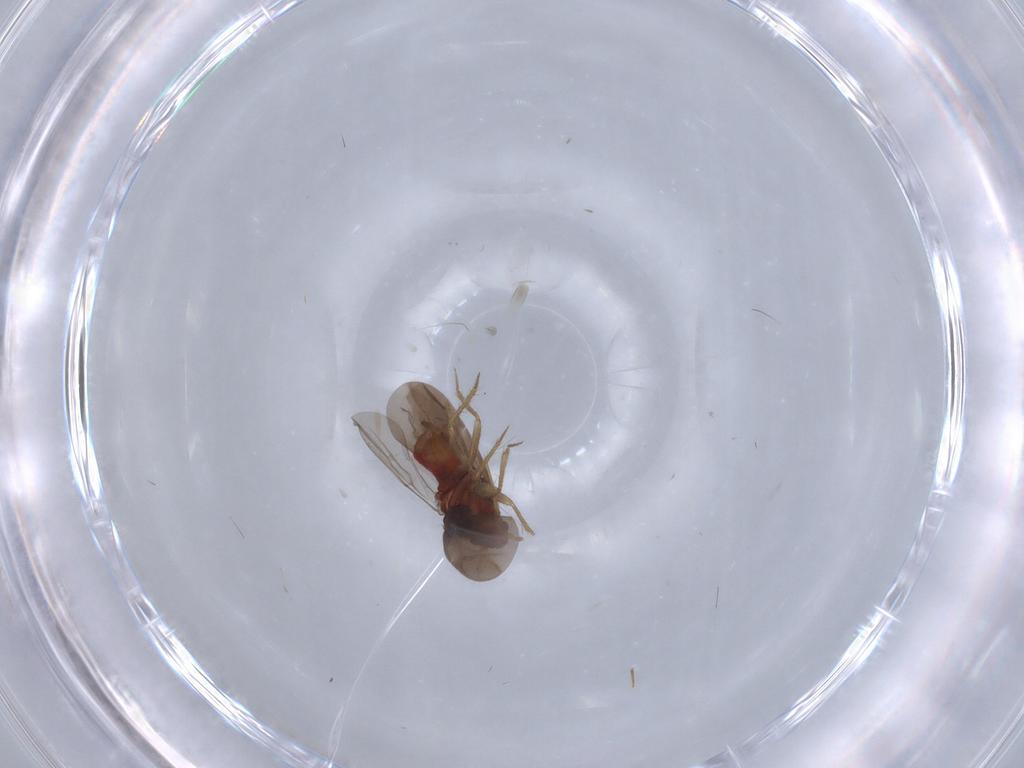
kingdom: Animalia
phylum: Arthropoda
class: Insecta
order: Hemiptera
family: Ceratocombidae
